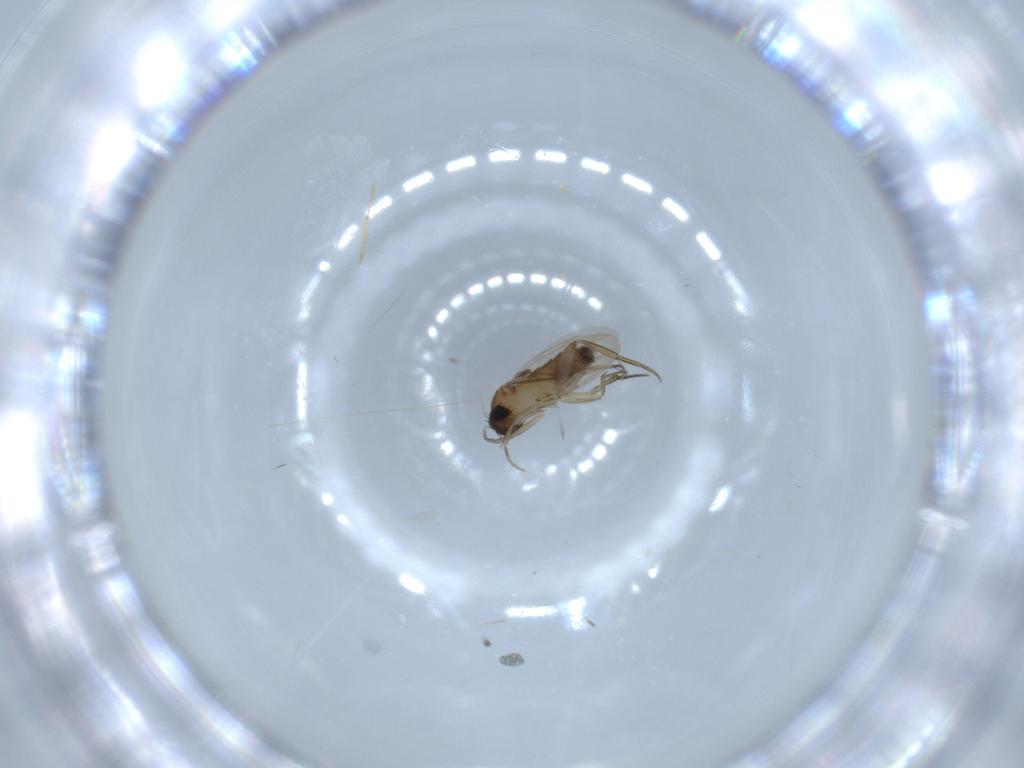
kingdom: Animalia
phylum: Arthropoda
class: Insecta
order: Diptera
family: Phoridae
